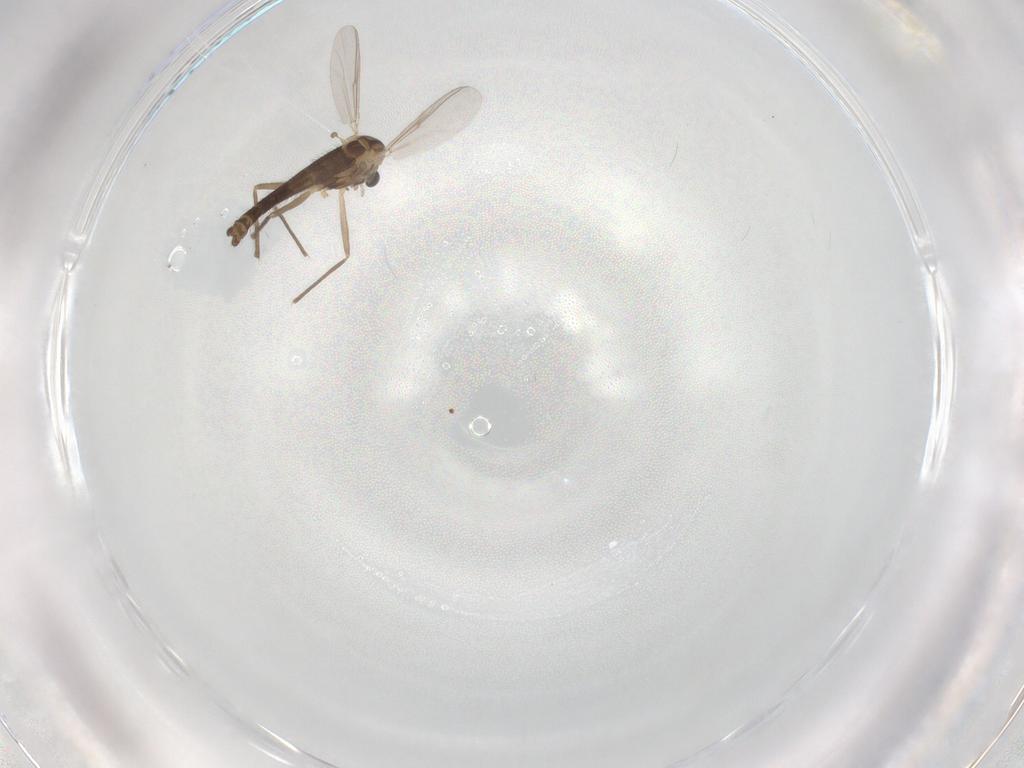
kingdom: Animalia
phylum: Arthropoda
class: Insecta
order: Diptera
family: Chironomidae
